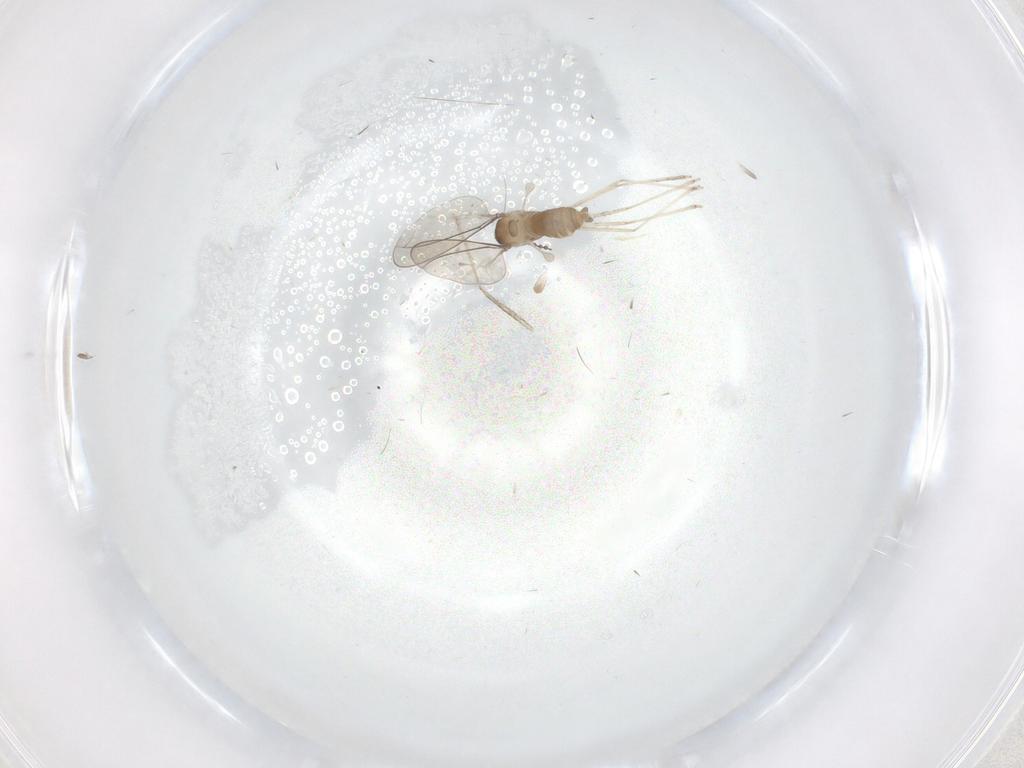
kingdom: Animalia
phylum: Arthropoda
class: Insecta
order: Diptera
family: Limoniidae
